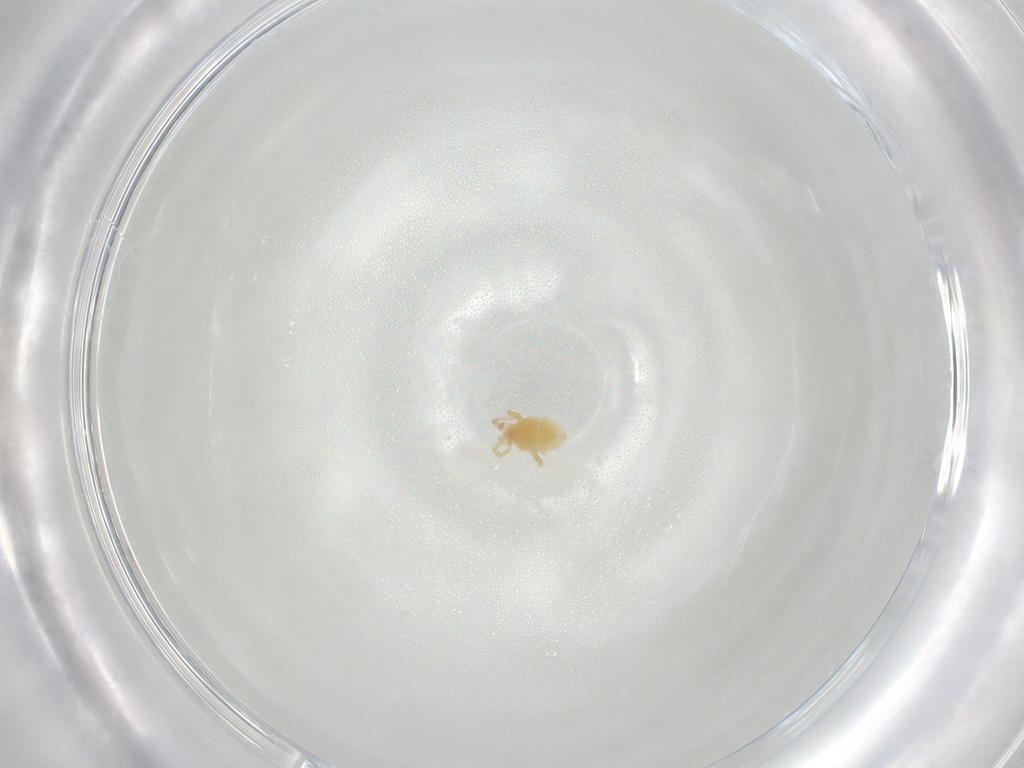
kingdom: Animalia
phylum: Arthropoda
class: Arachnida
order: Mesostigmata
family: Parasitidae
